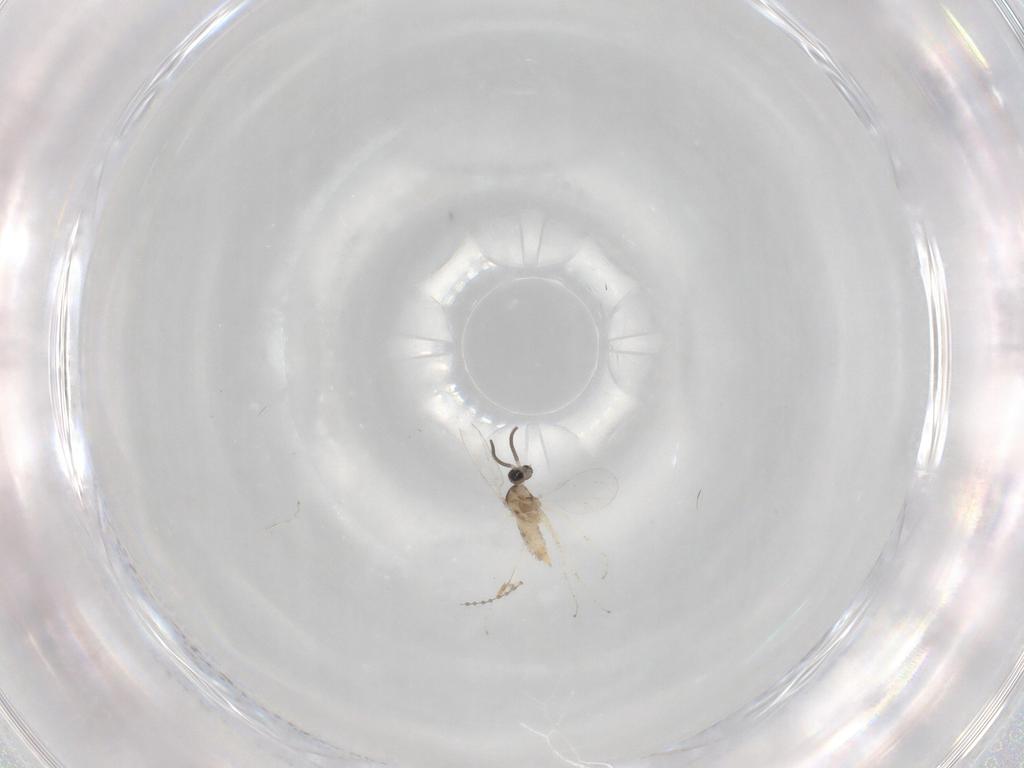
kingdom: Animalia
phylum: Arthropoda
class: Insecta
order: Diptera
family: Cecidomyiidae
